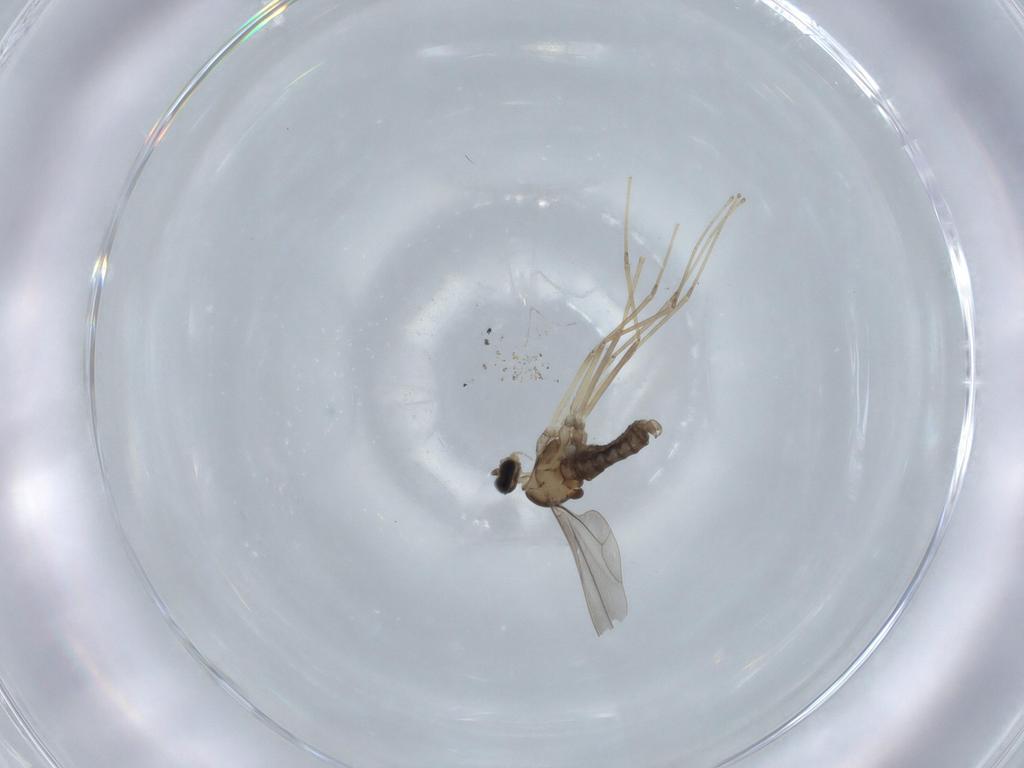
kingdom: Animalia
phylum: Arthropoda
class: Insecta
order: Diptera
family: Cecidomyiidae
